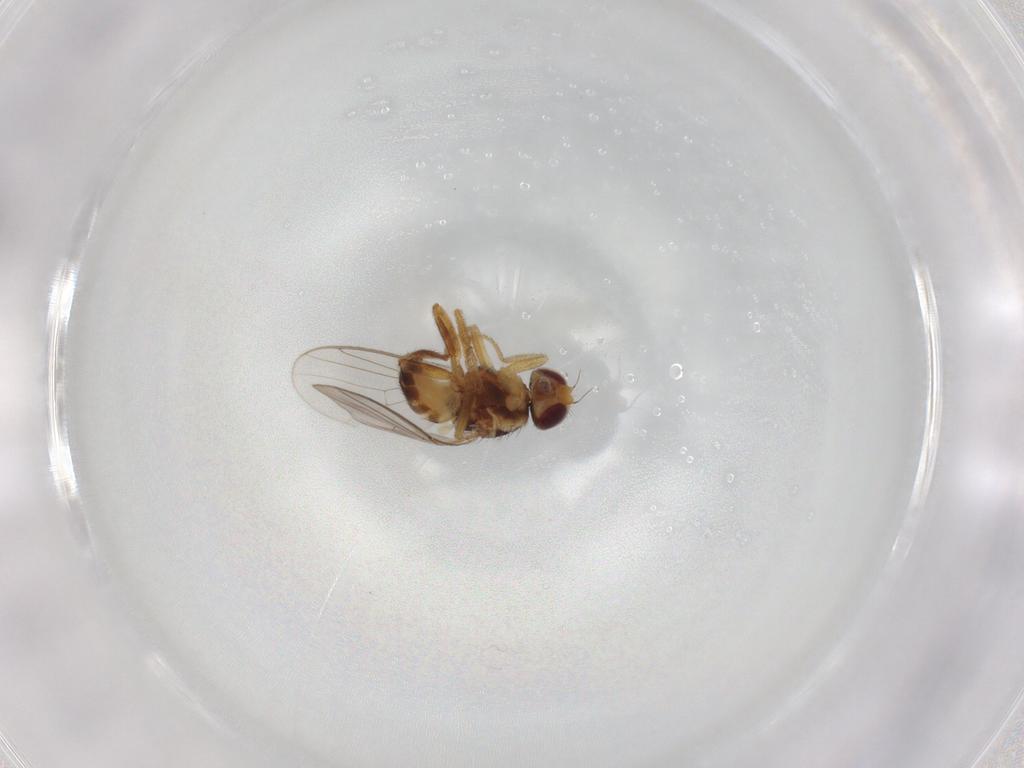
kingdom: Animalia
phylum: Arthropoda
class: Insecta
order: Diptera
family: Chloropidae
